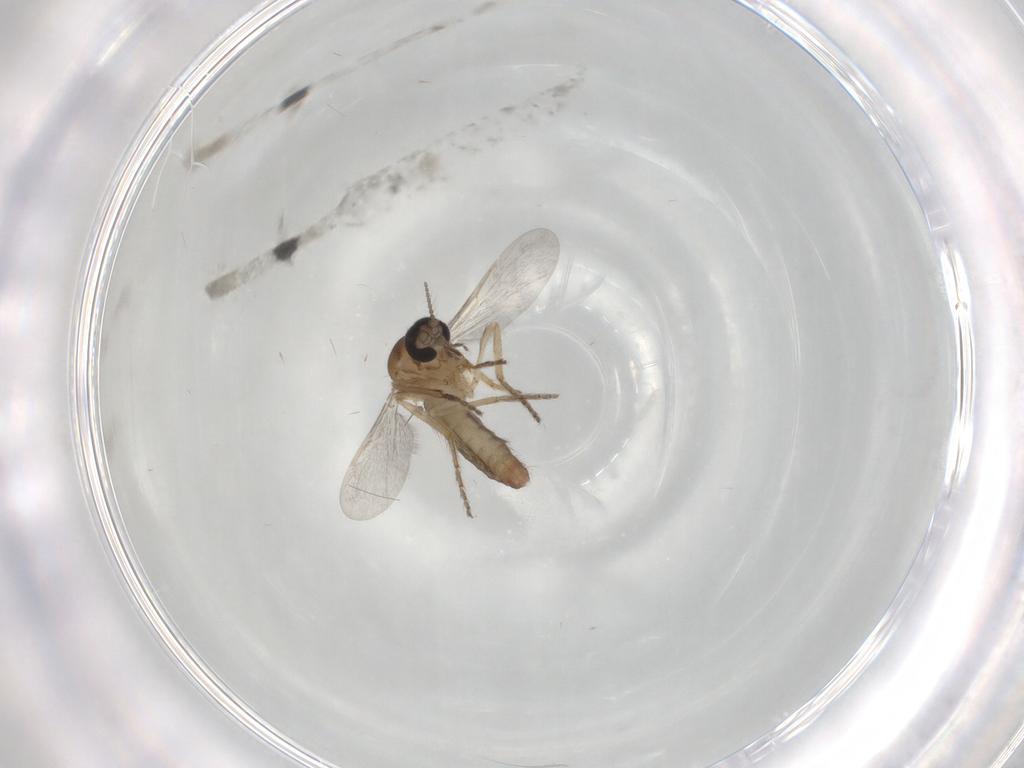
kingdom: Animalia
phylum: Arthropoda
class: Insecta
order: Diptera
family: Ceratopogonidae
